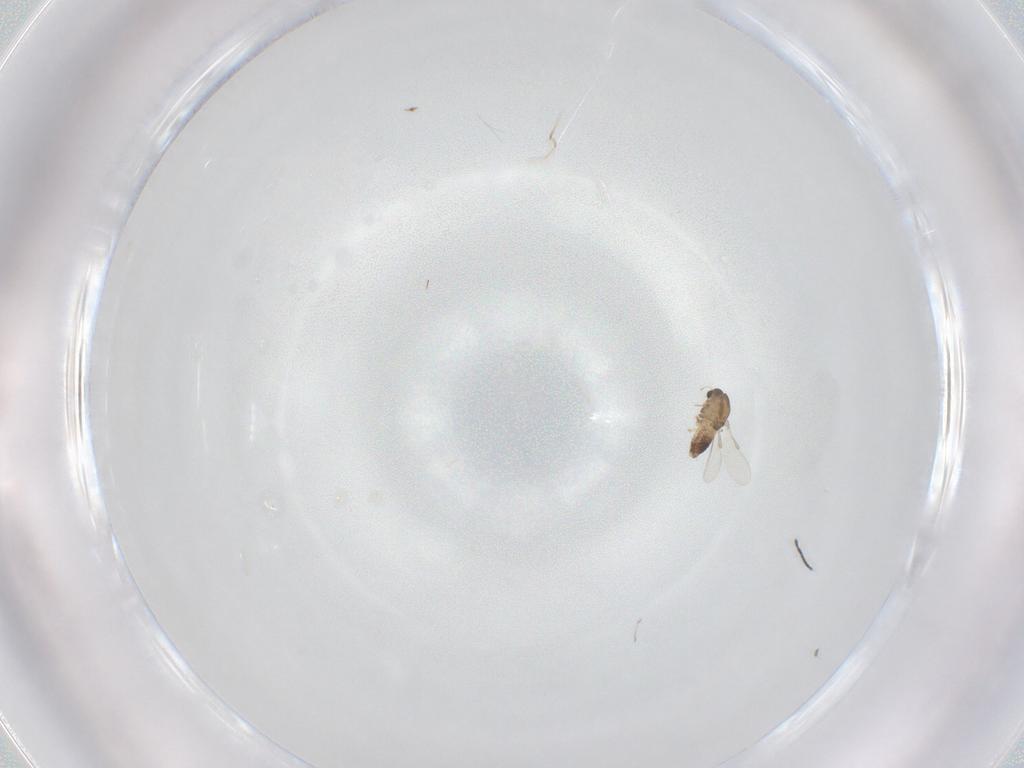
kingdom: Animalia
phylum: Arthropoda
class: Insecta
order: Diptera
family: Chironomidae
